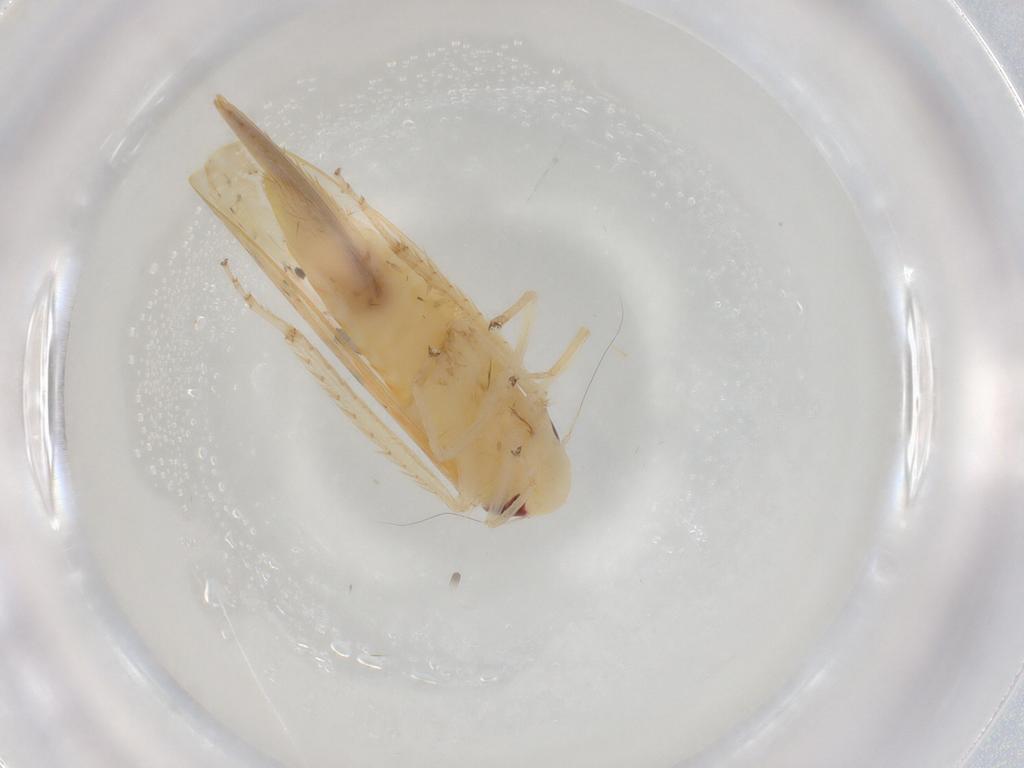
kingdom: Animalia
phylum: Arthropoda
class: Insecta
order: Hemiptera
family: Cicadellidae
